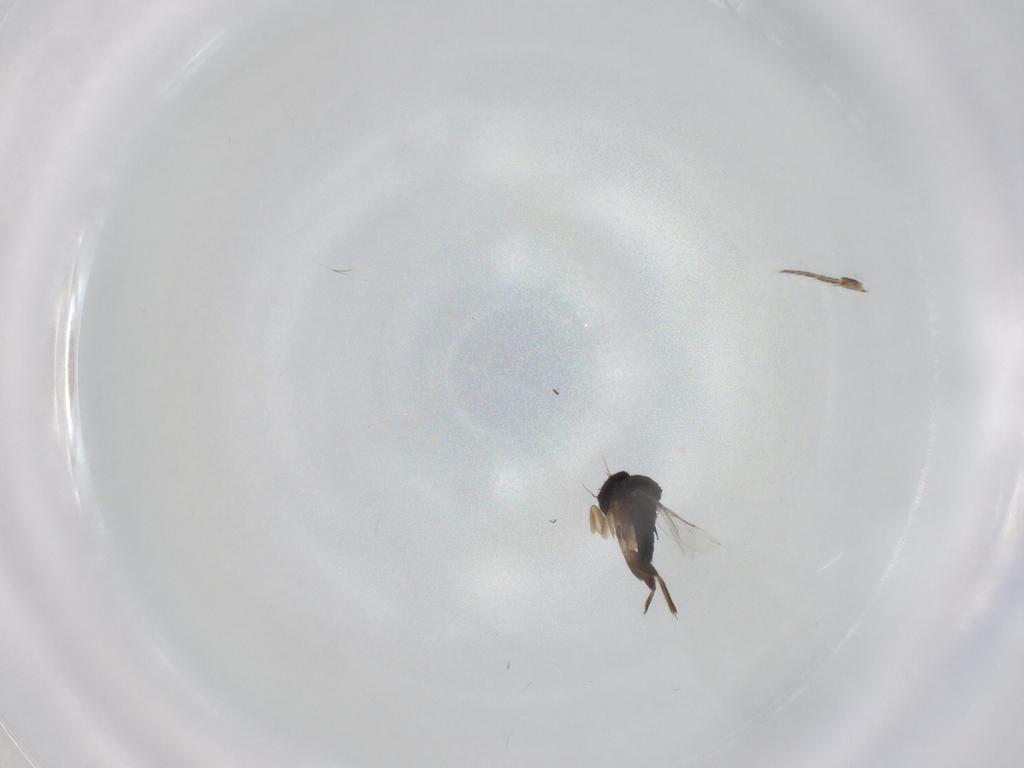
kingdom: Animalia
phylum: Arthropoda
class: Insecta
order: Diptera
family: Phoridae
